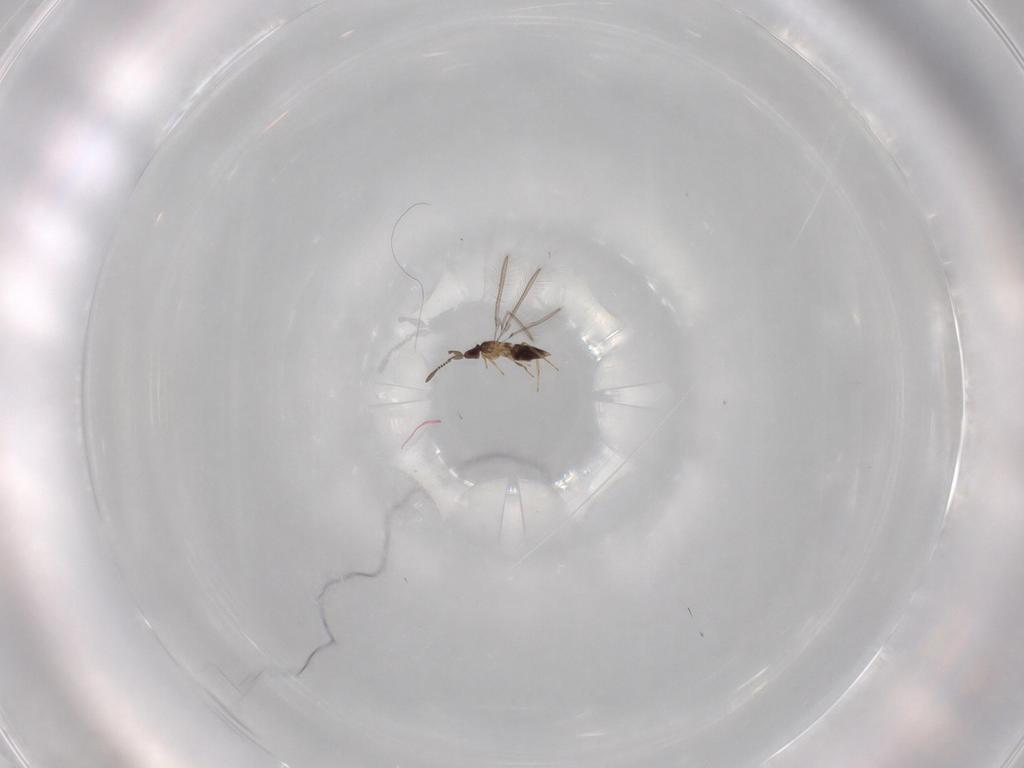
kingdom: Animalia
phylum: Arthropoda
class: Insecta
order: Hymenoptera
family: Mymaridae
